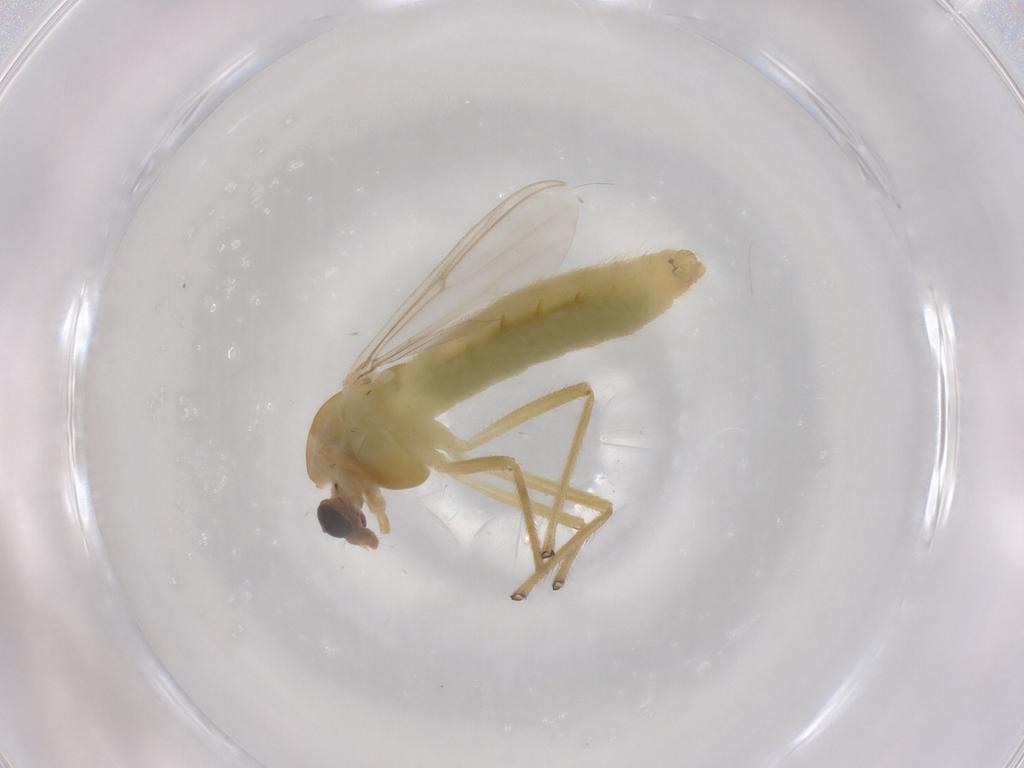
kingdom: Animalia
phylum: Arthropoda
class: Insecta
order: Diptera
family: Chironomidae
